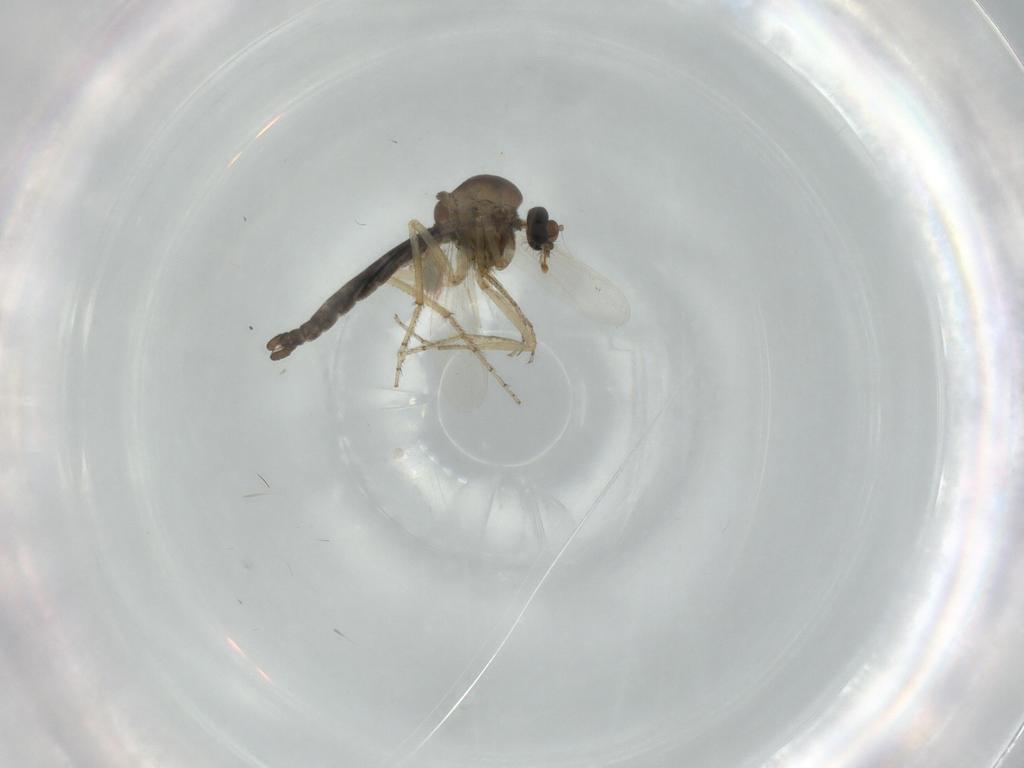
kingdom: Animalia
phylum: Arthropoda
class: Insecta
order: Diptera
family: Ceratopogonidae
